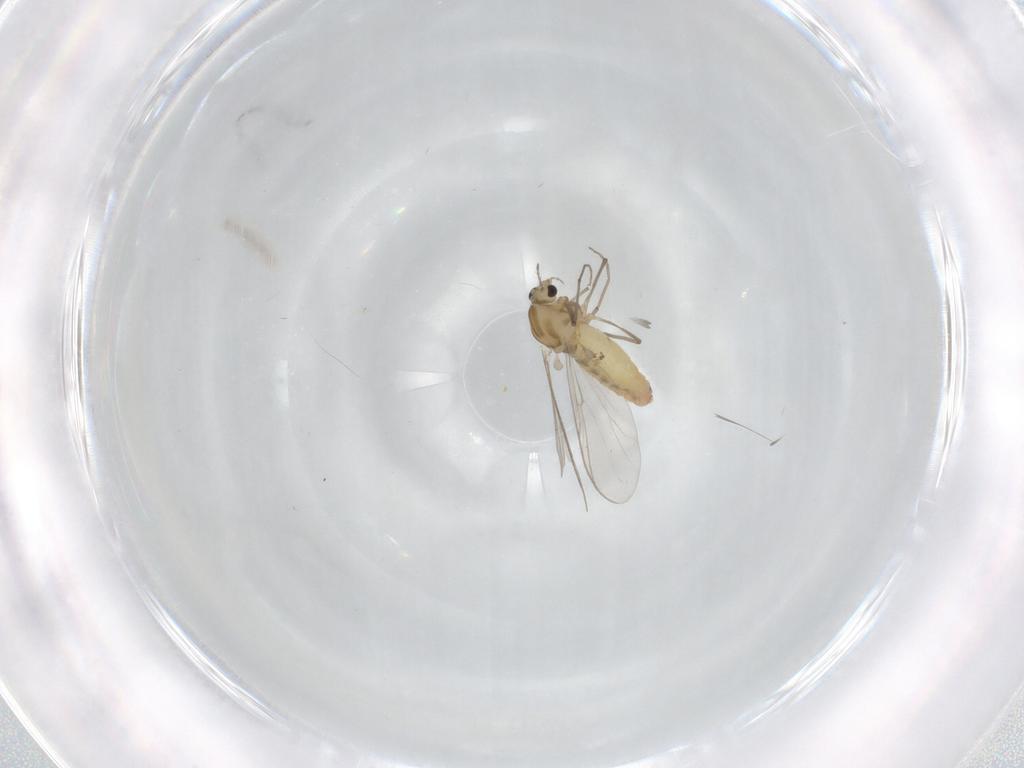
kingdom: Animalia
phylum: Arthropoda
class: Insecta
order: Diptera
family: Chironomidae
